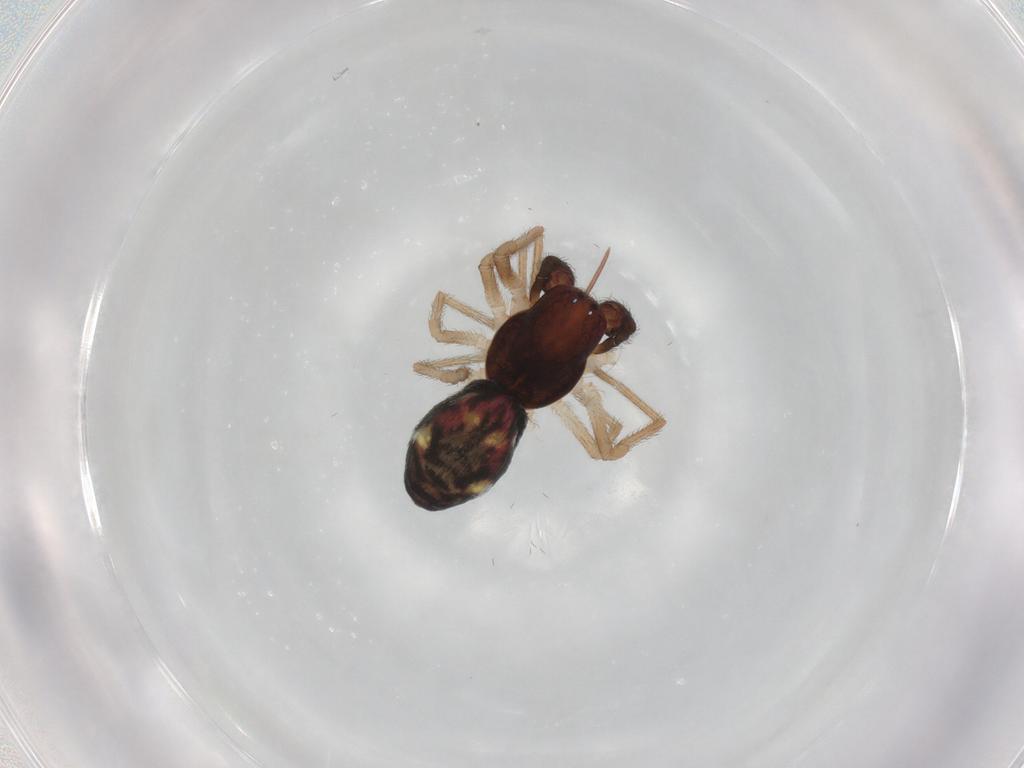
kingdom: Animalia
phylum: Arthropoda
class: Arachnida
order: Araneae
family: Dictynidae
